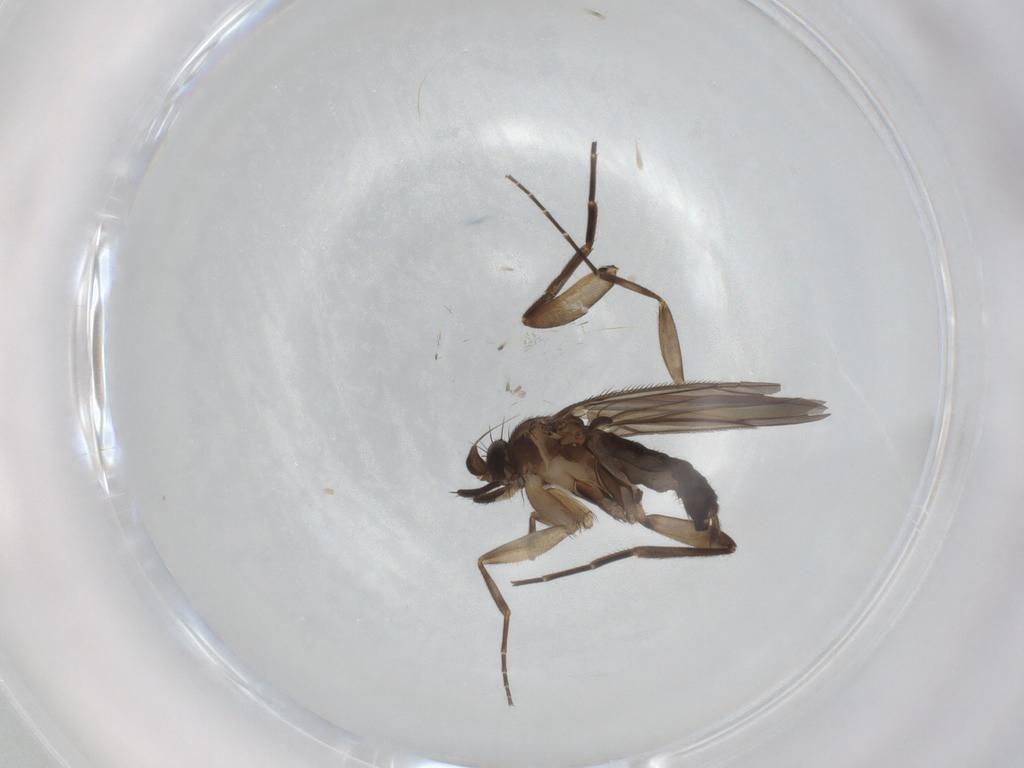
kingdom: Animalia
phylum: Arthropoda
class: Insecta
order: Diptera
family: Phoridae
